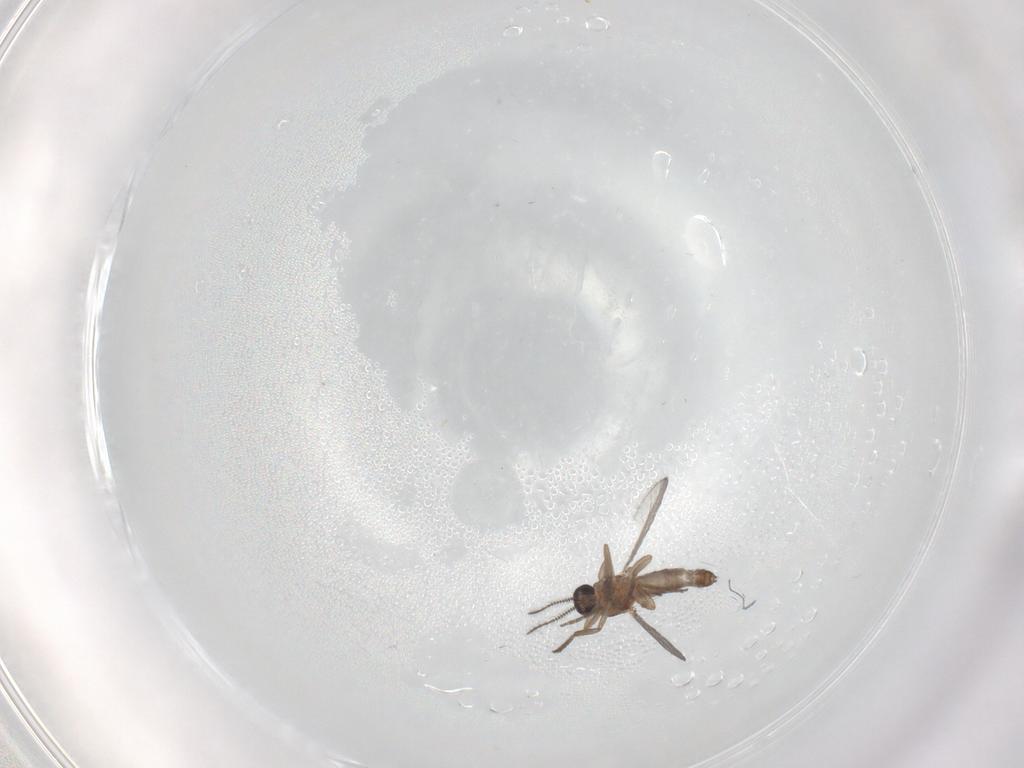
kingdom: Animalia
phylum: Arthropoda
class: Insecta
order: Diptera
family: Ceratopogonidae
